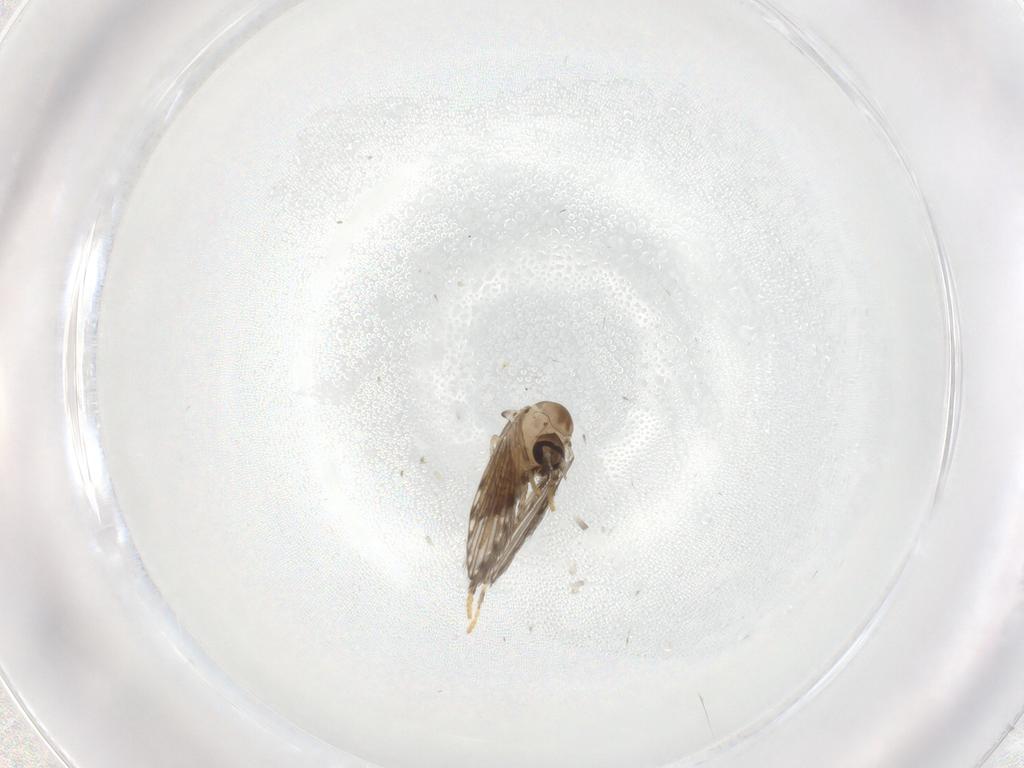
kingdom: Animalia
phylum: Arthropoda
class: Insecta
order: Diptera
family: Psychodidae
